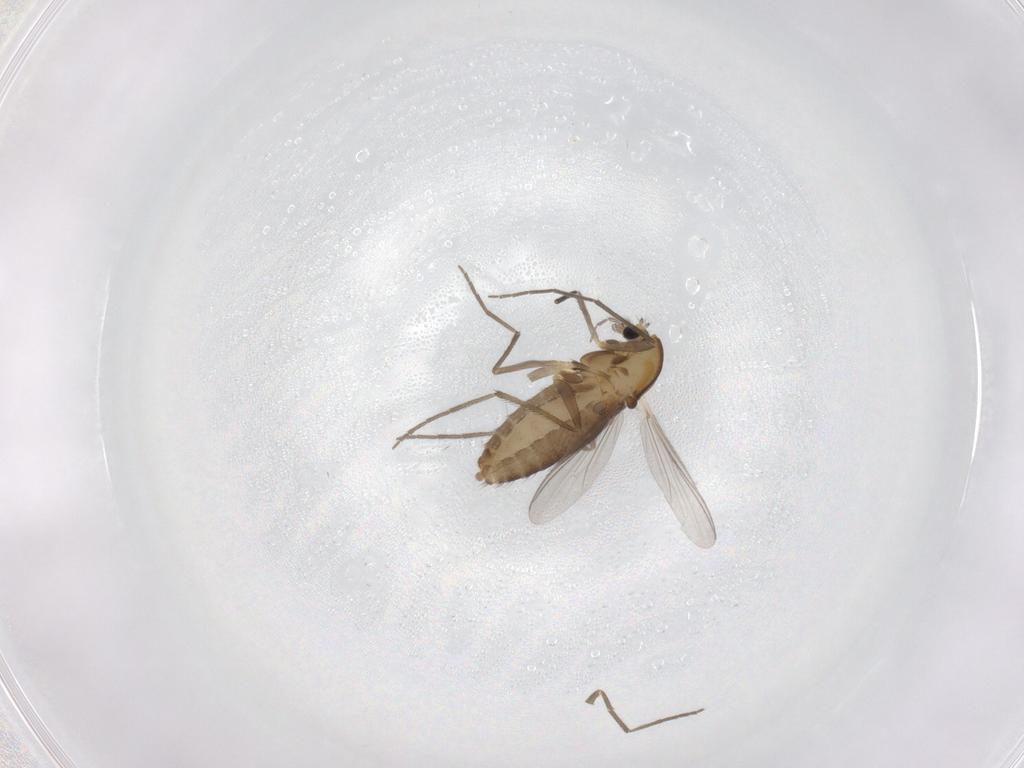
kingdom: Animalia
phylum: Arthropoda
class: Insecta
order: Diptera
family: Chironomidae
